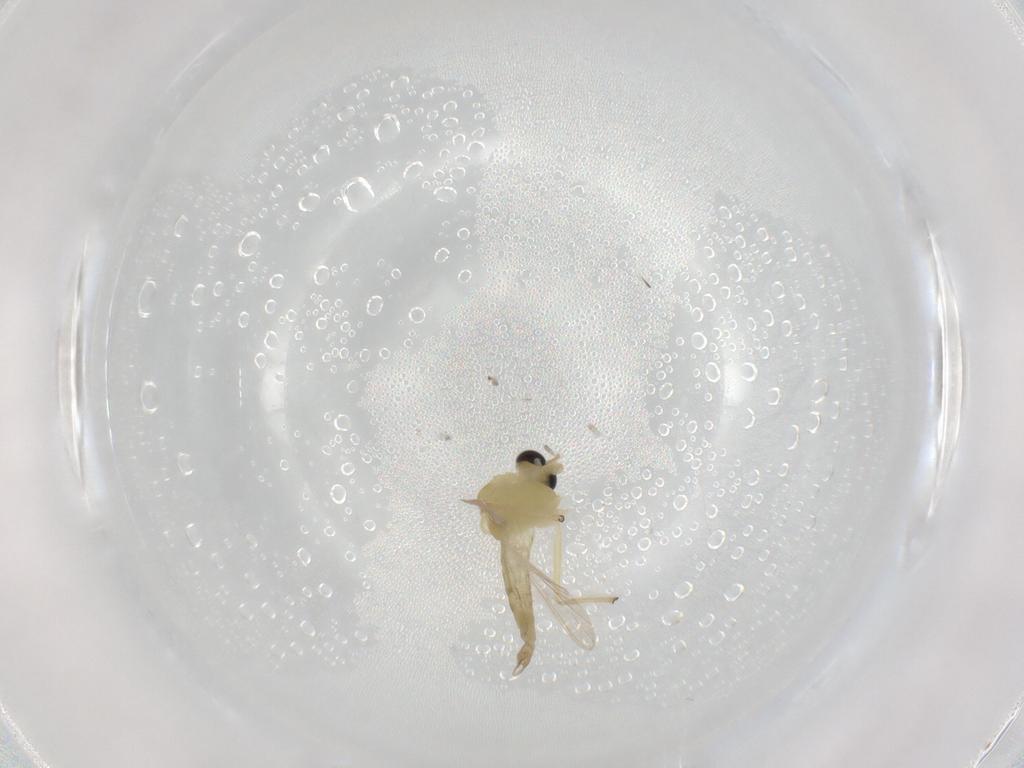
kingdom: Animalia
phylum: Arthropoda
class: Insecta
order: Diptera
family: Chironomidae
